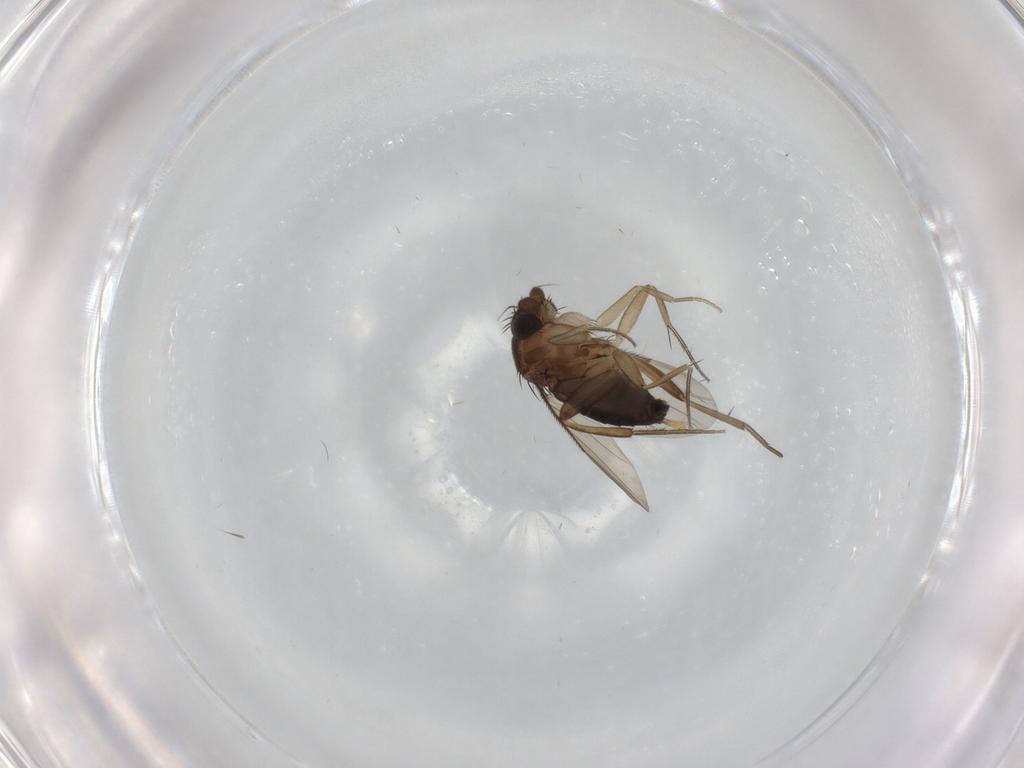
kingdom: Animalia
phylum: Arthropoda
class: Insecta
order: Diptera
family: Phoridae
